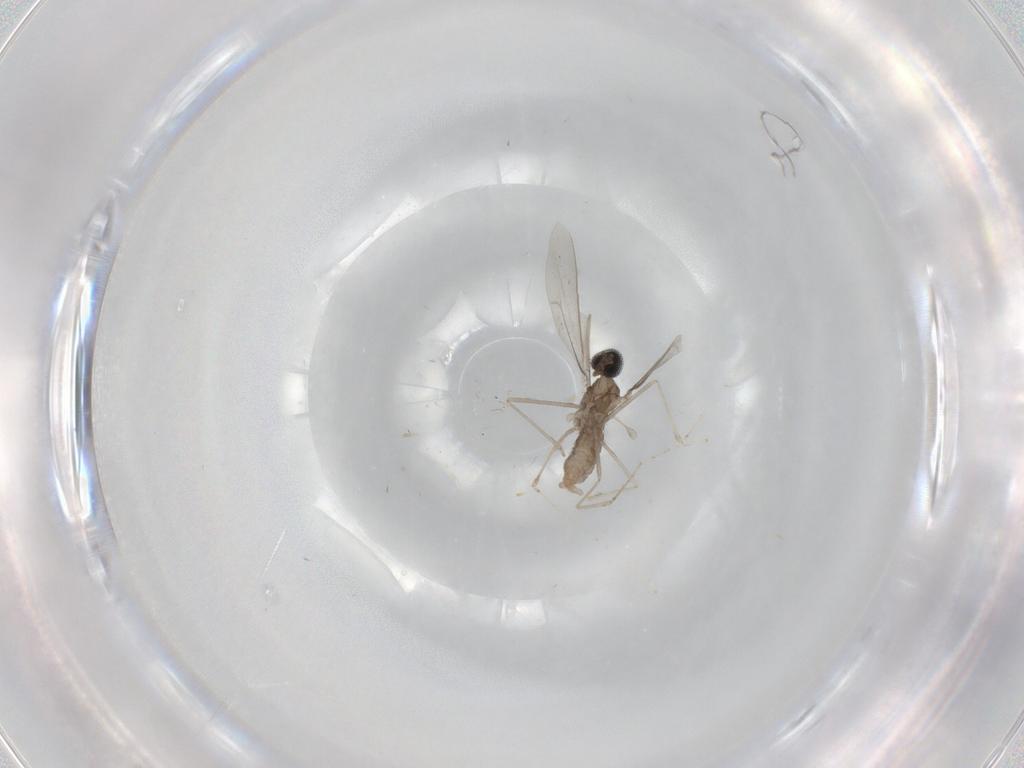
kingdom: Animalia
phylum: Arthropoda
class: Insecta
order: Diptera
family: Cecidomyiidae
